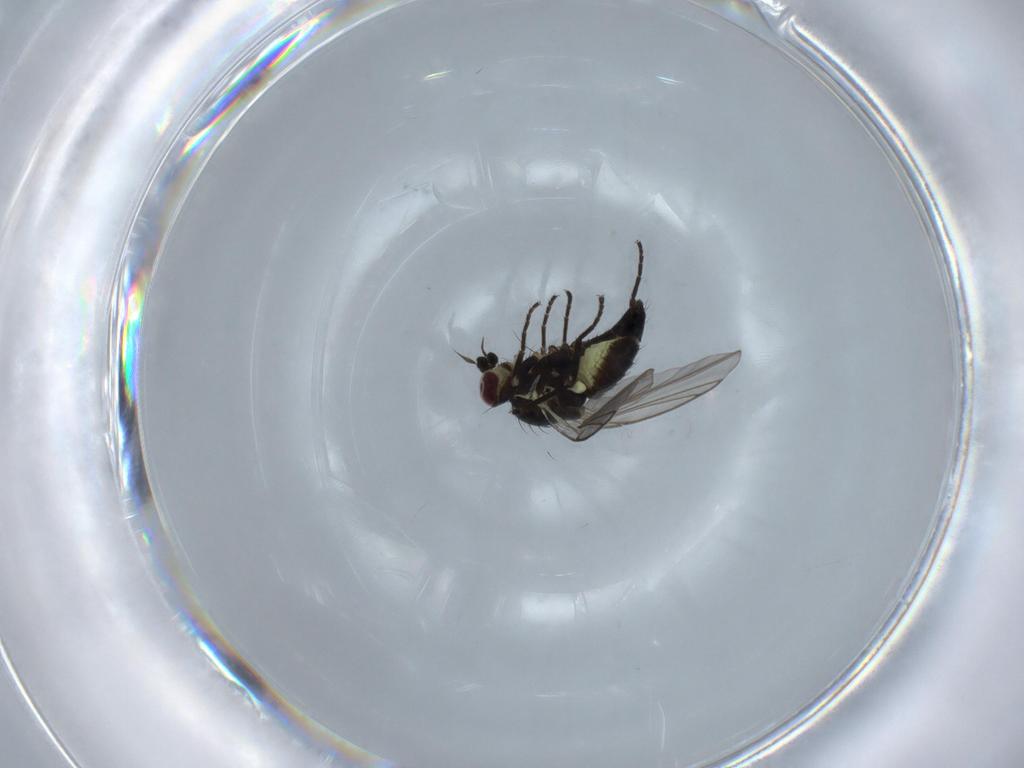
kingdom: Animalia
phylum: Arthropoda
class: Insecta
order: Diptera
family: Agromyzidae
